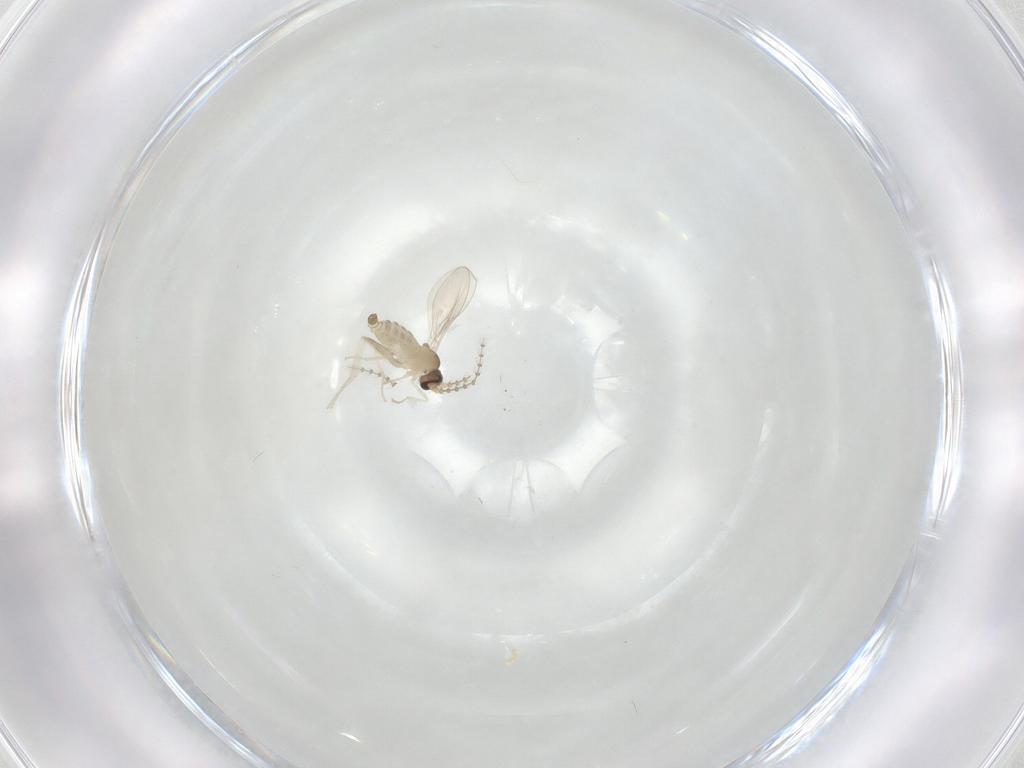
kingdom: Animalia
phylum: Arthropoda
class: Insecta
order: Diptera
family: Cecidomyiidae
